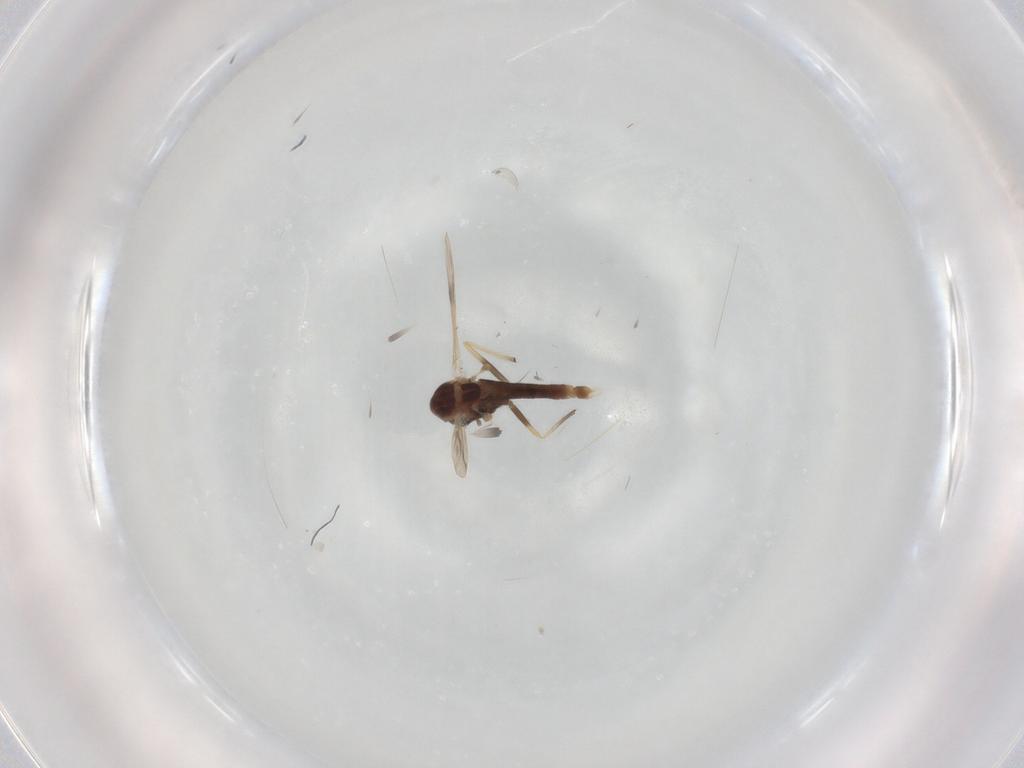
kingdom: Animalia
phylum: Arthropoda
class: Insecta
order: Diptera
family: Chironomidae
